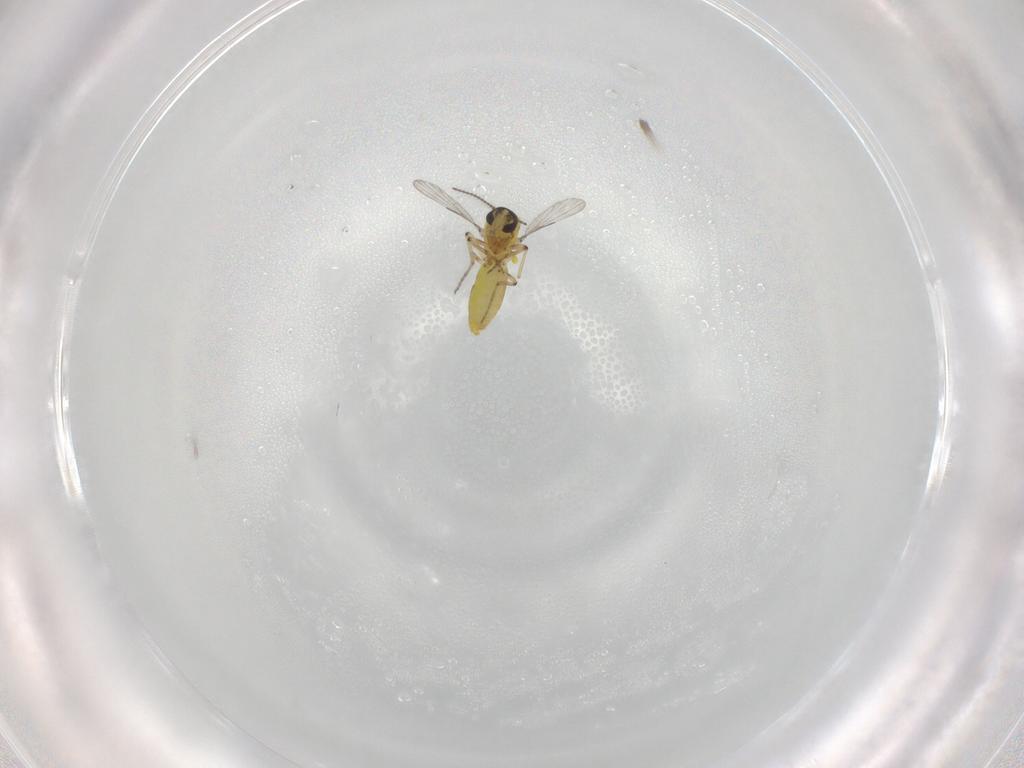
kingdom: Animalia
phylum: Arthropoda
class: Insecta
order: Diptera
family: Ceratopogonidae
